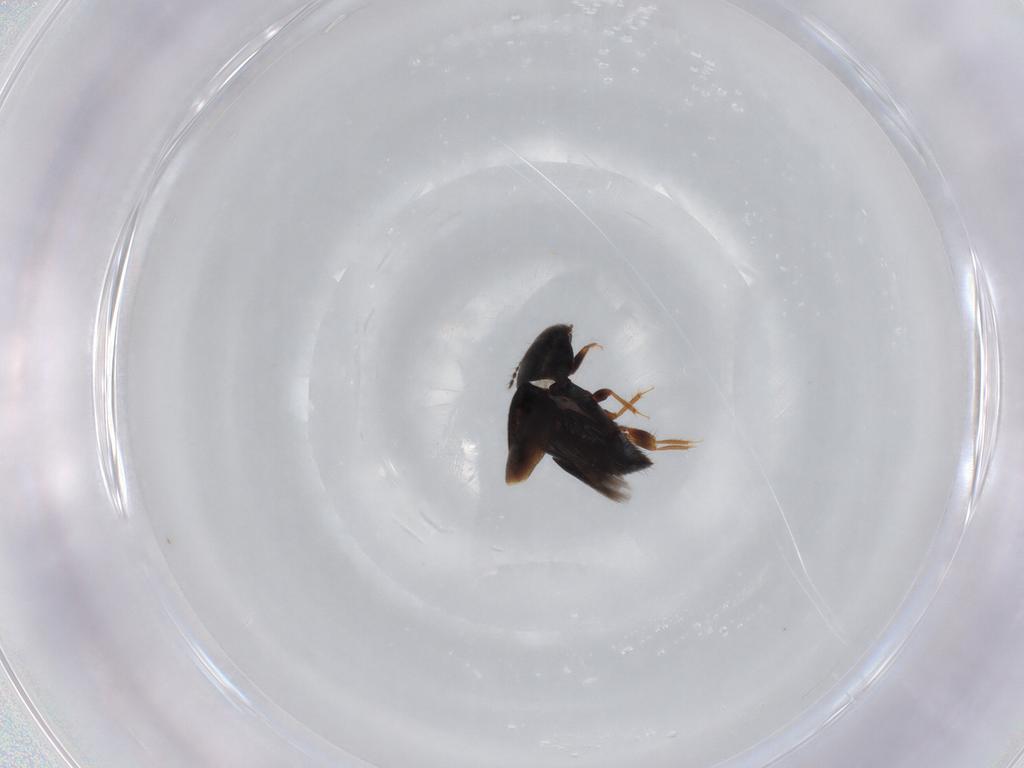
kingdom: Animalia
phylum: Arthropoda
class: Insecta
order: Coleoptera
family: Ptiliidae
